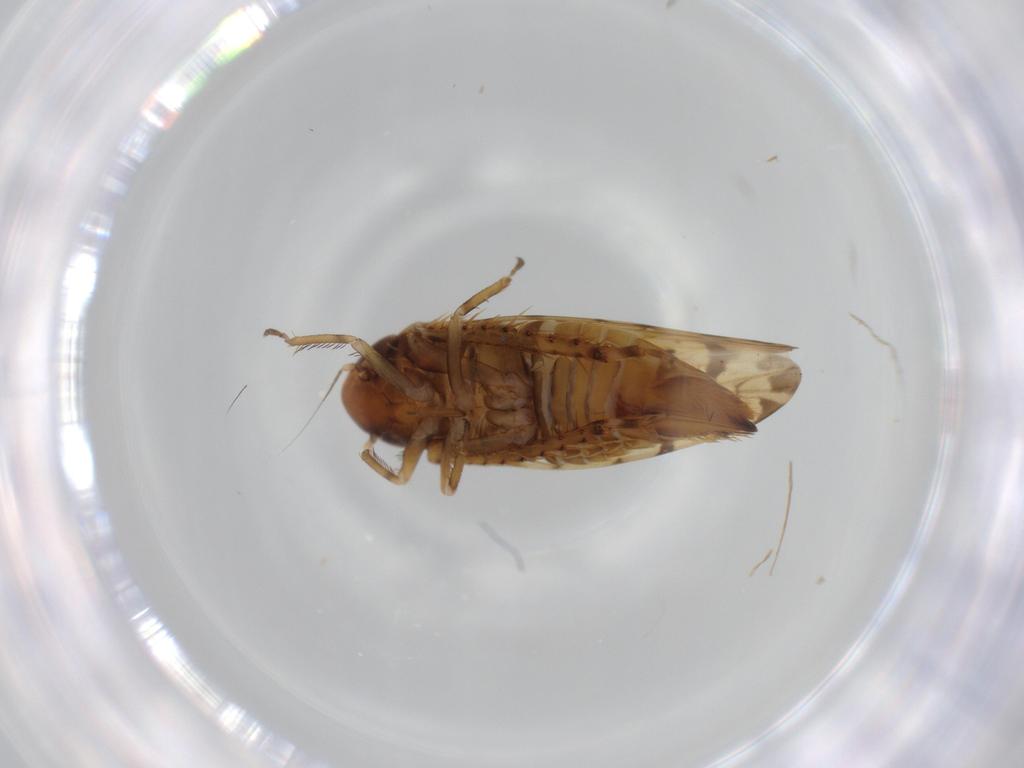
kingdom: Animalia
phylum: Arthropoda
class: Insecta
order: Hemiptera
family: Cicadellidae
